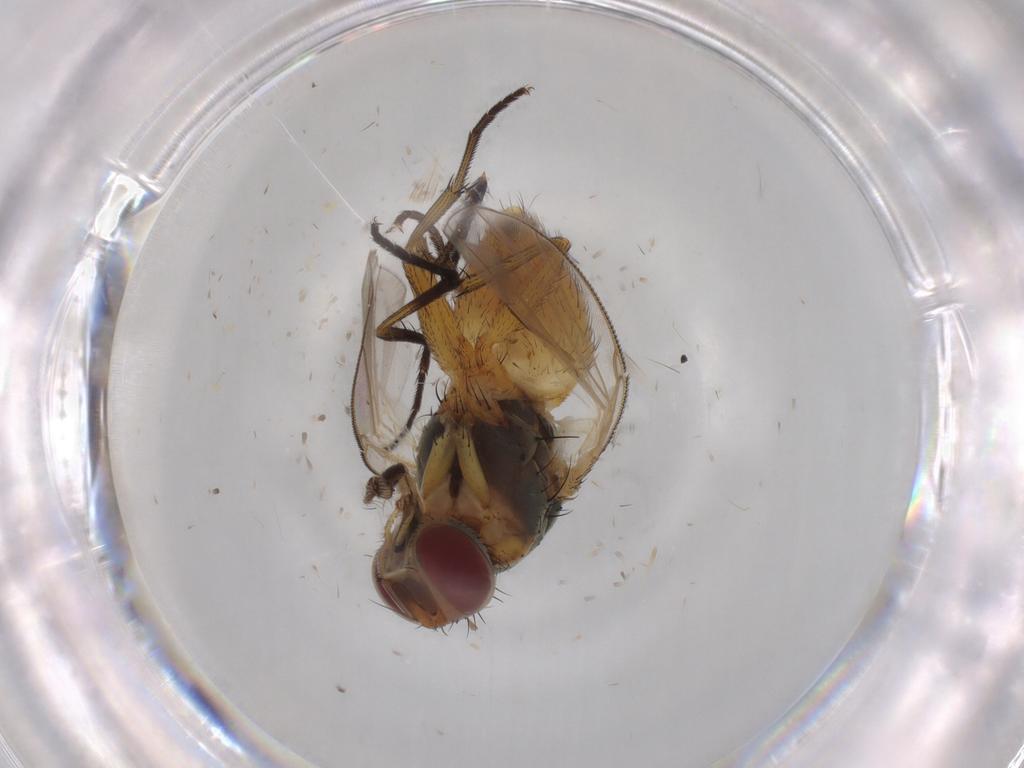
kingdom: Animalia
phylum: Arthropoda
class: Insecta
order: Diptera
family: Muscidae
